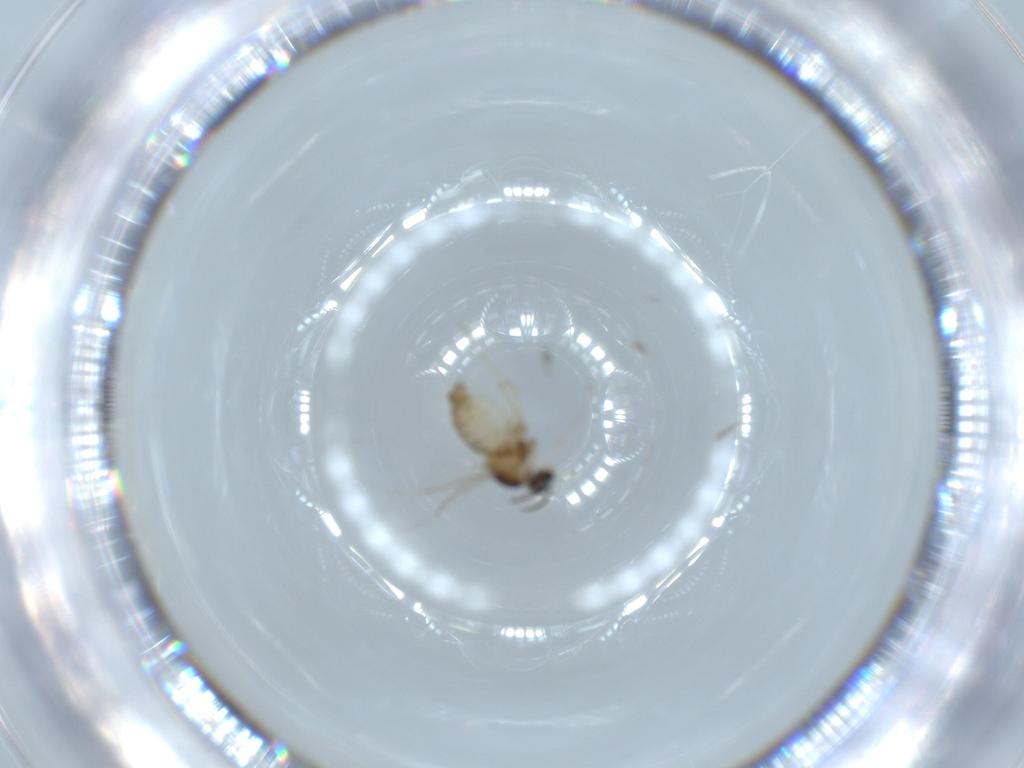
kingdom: Animalia
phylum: Arthropoda
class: Insecta
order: Diptera
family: Cecidomyiidae
